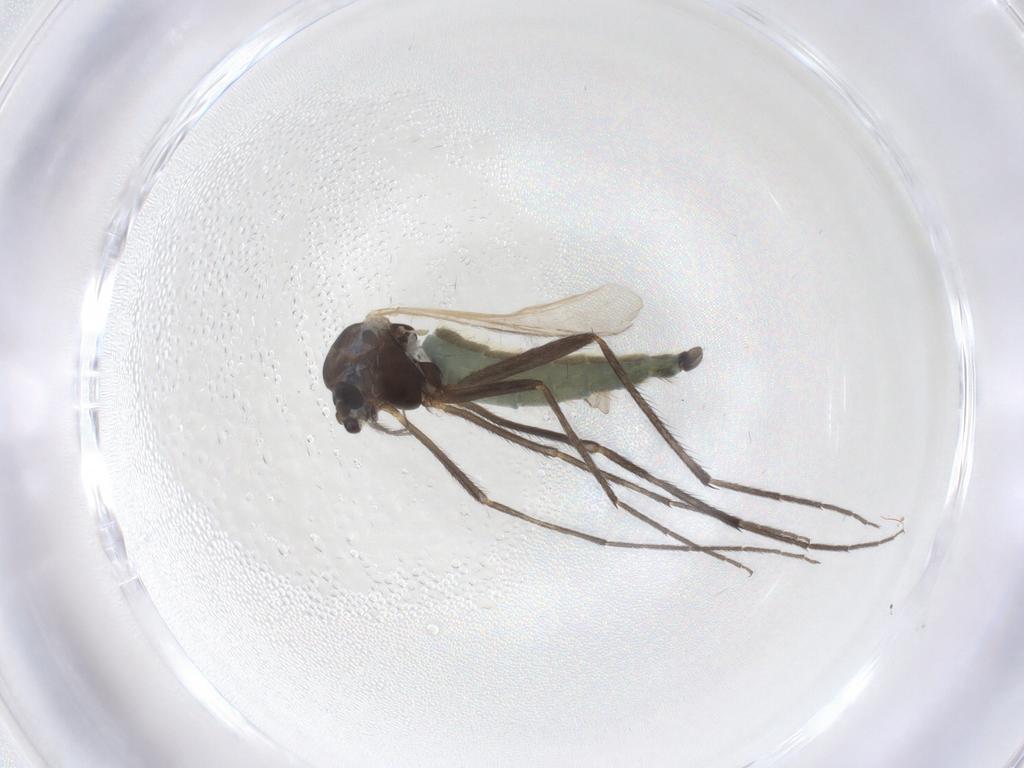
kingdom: Animalia
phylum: Arthropoda
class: Insecta
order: Diptera
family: Chironomidae
